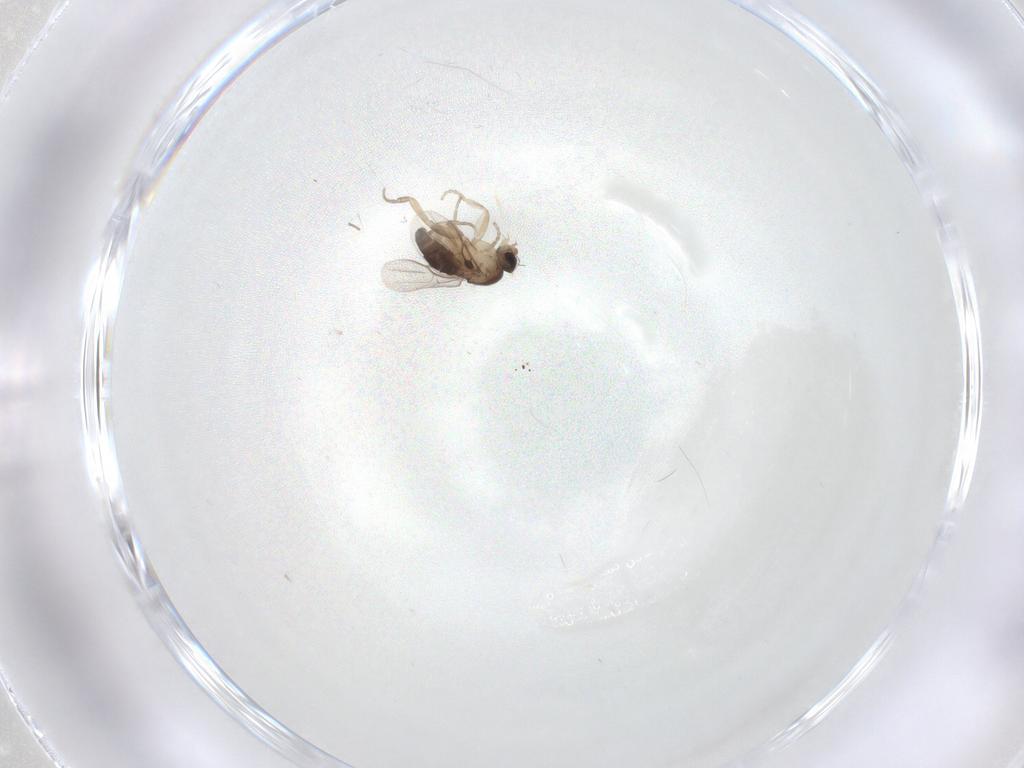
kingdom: Animalia
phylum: Arthropoda
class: Insecta
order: Diptera
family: Phoridae
